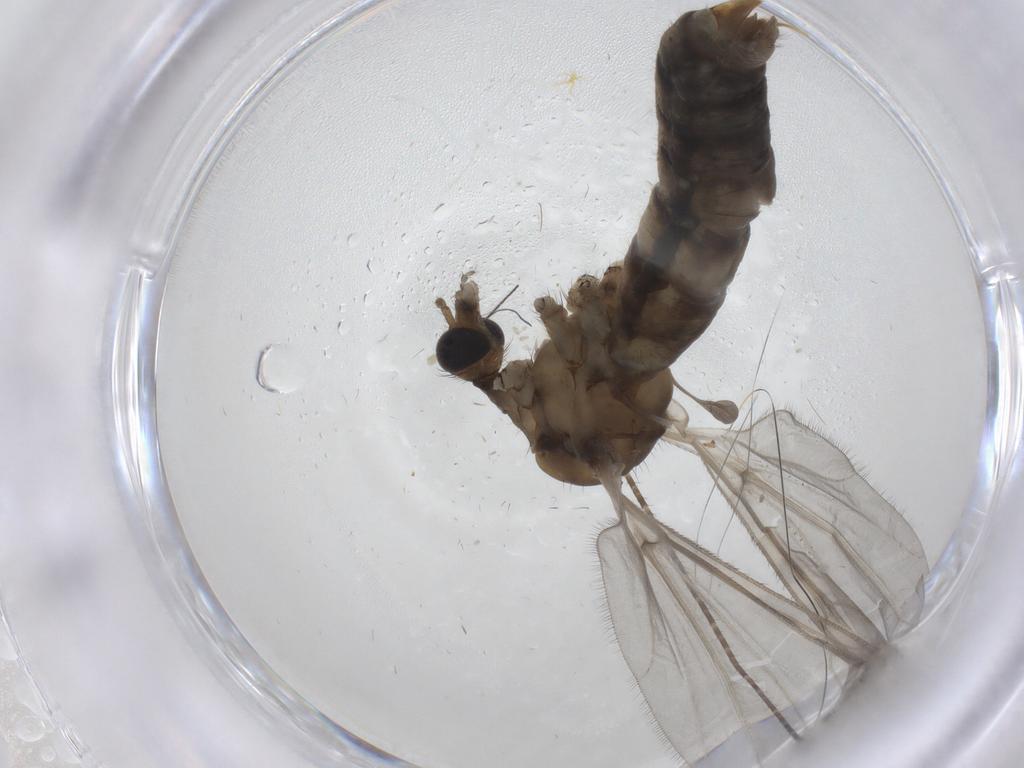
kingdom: Animalia
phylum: Arthropoda
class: Insecta
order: Diptera
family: Limoniidae
